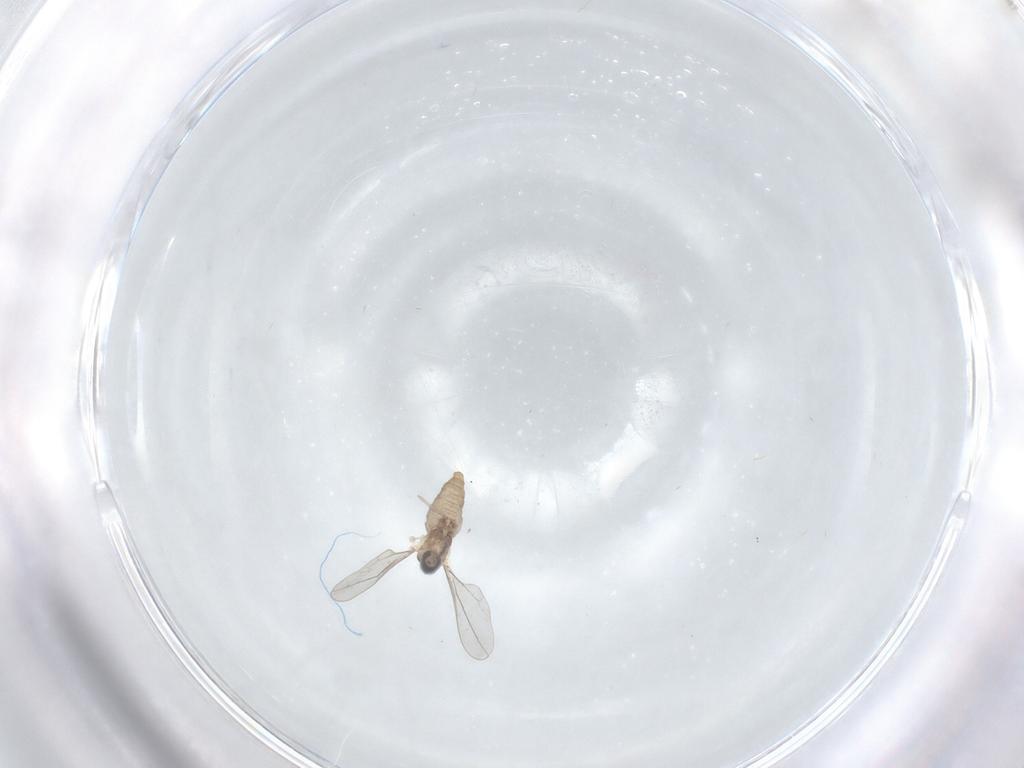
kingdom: Animalia
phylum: Arthropoda
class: Insecta
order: Diptera
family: Cecidomyiidae
